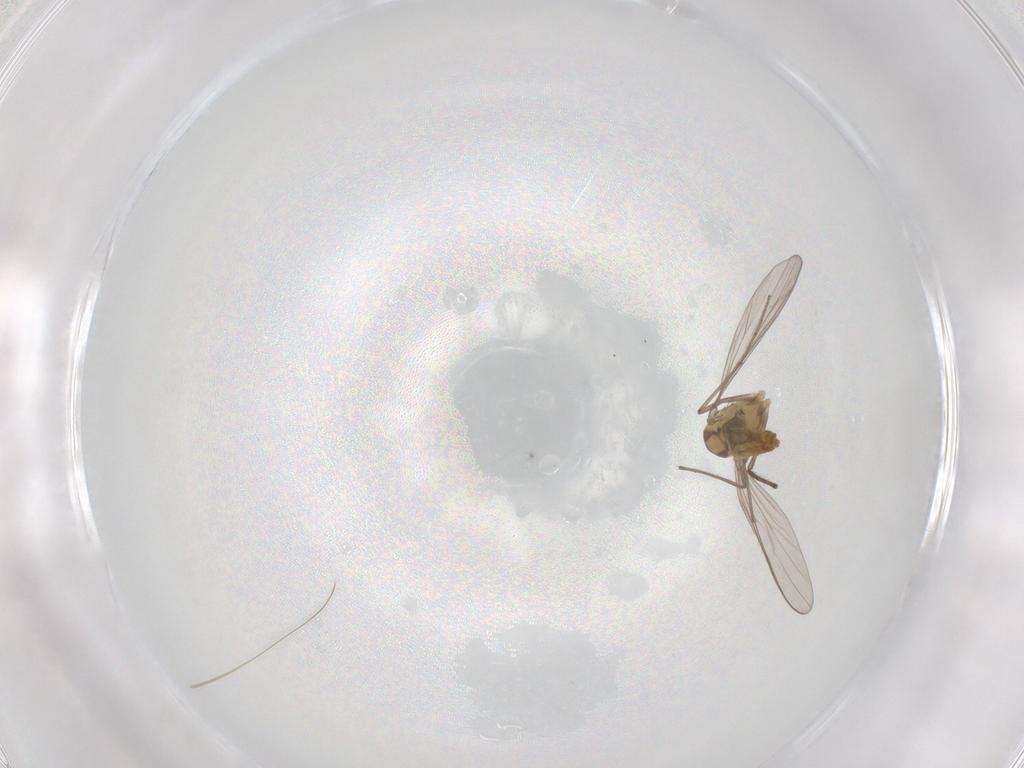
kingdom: Animalia
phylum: Arthropoda
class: Insecta
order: Diptera
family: Chironomidae
